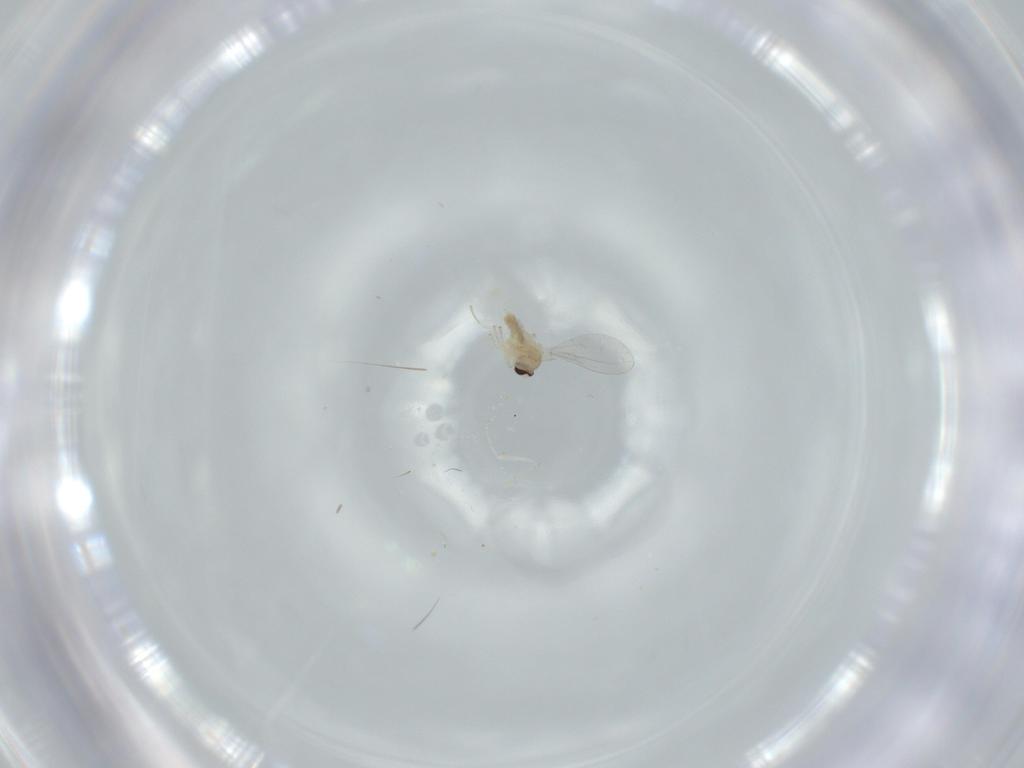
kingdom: Animalia
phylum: Arthropoda
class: Insecta
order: Diptera
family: Cecidomyiidae
